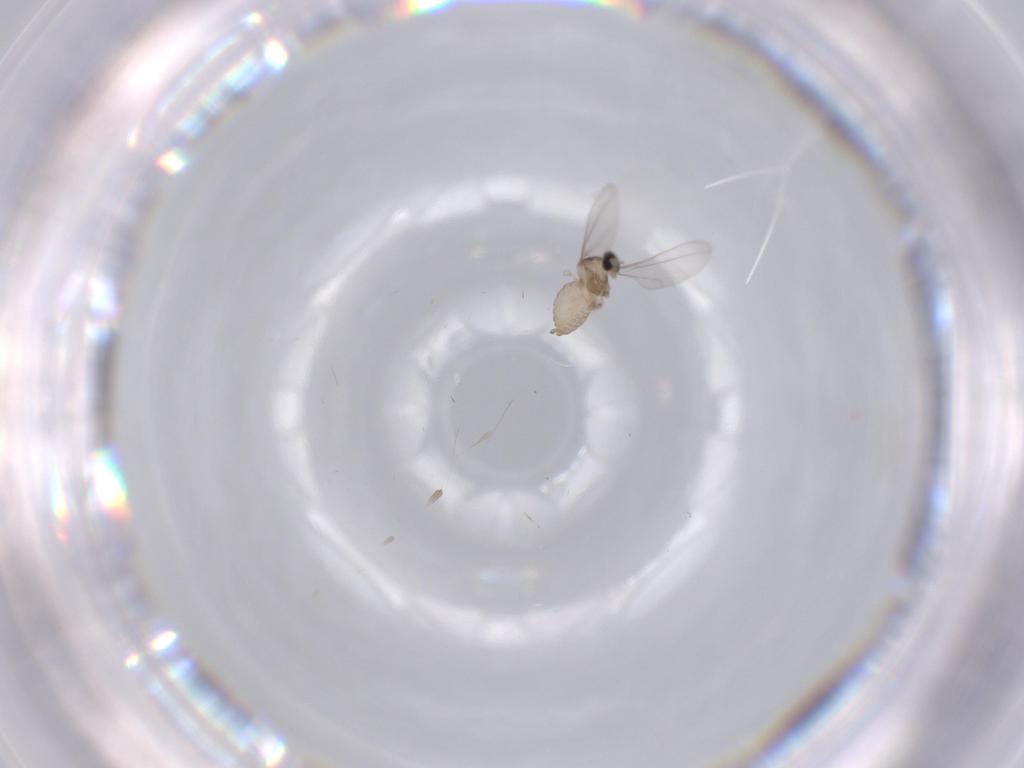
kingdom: Animalia
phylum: Arthropoda
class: Insecta
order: Diptera
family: Cecidomyiidae
